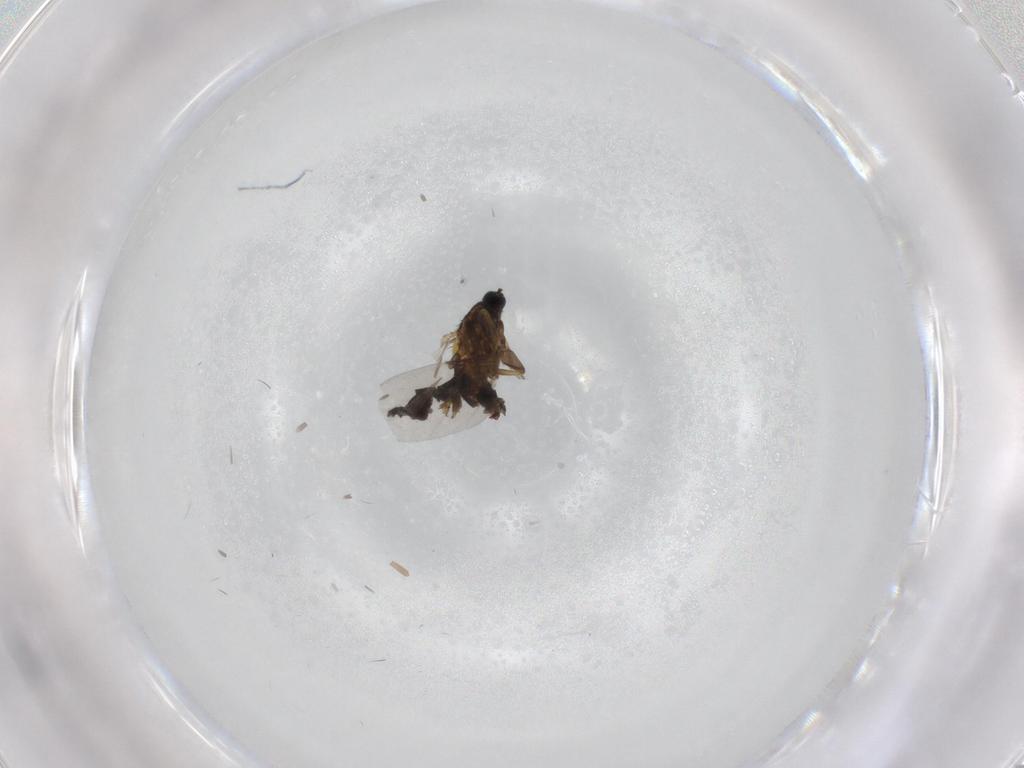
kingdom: Animalia
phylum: Arthropoda
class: Insecta
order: Diptera
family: Scatopsidae
